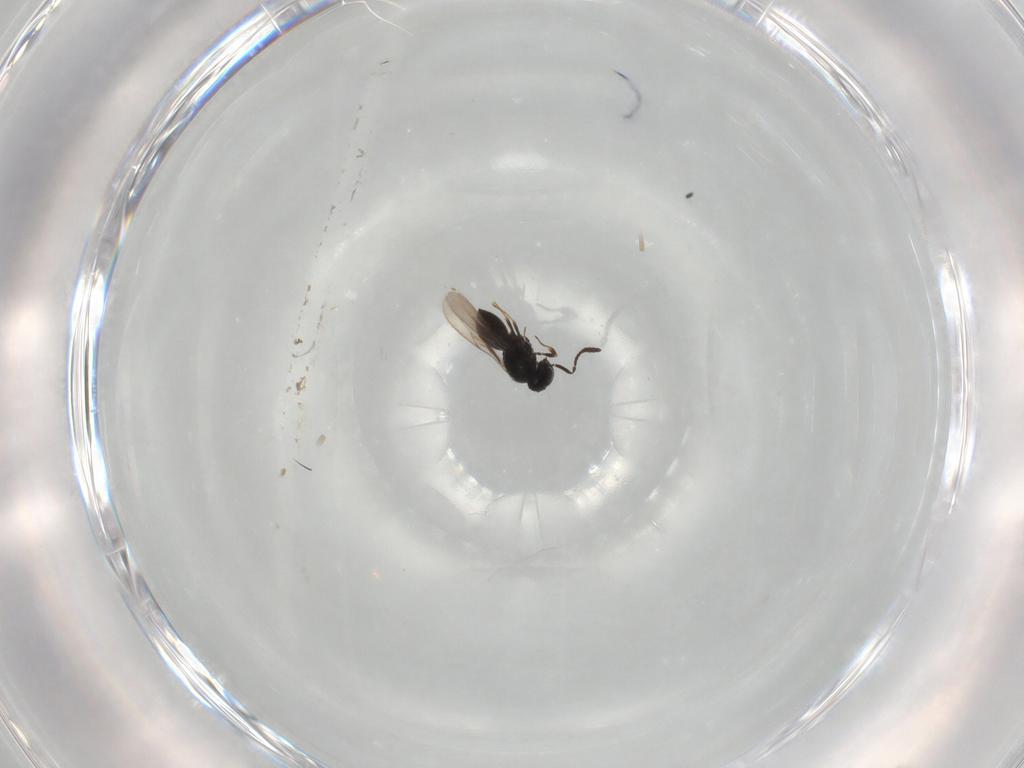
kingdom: Animalia
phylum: Arthropoda
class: Insecta
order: Hymenoptera
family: Scelionidae
